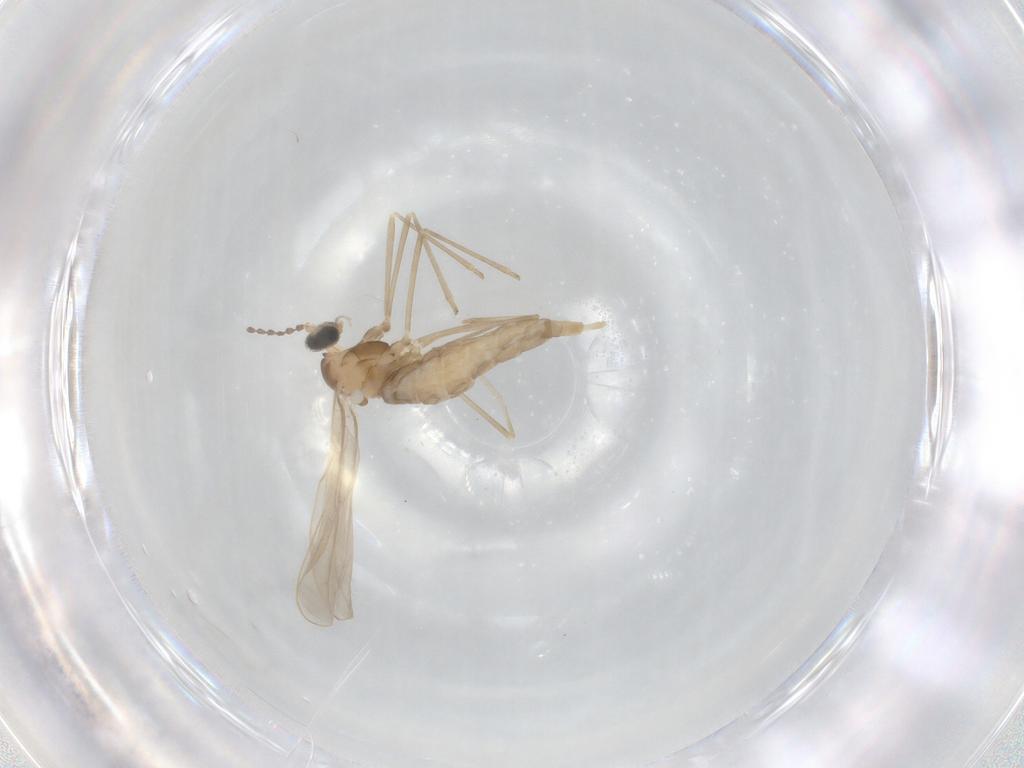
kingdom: Animalia
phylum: Arthropoda
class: Insecta
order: Diptera
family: Cecidomyiidae
